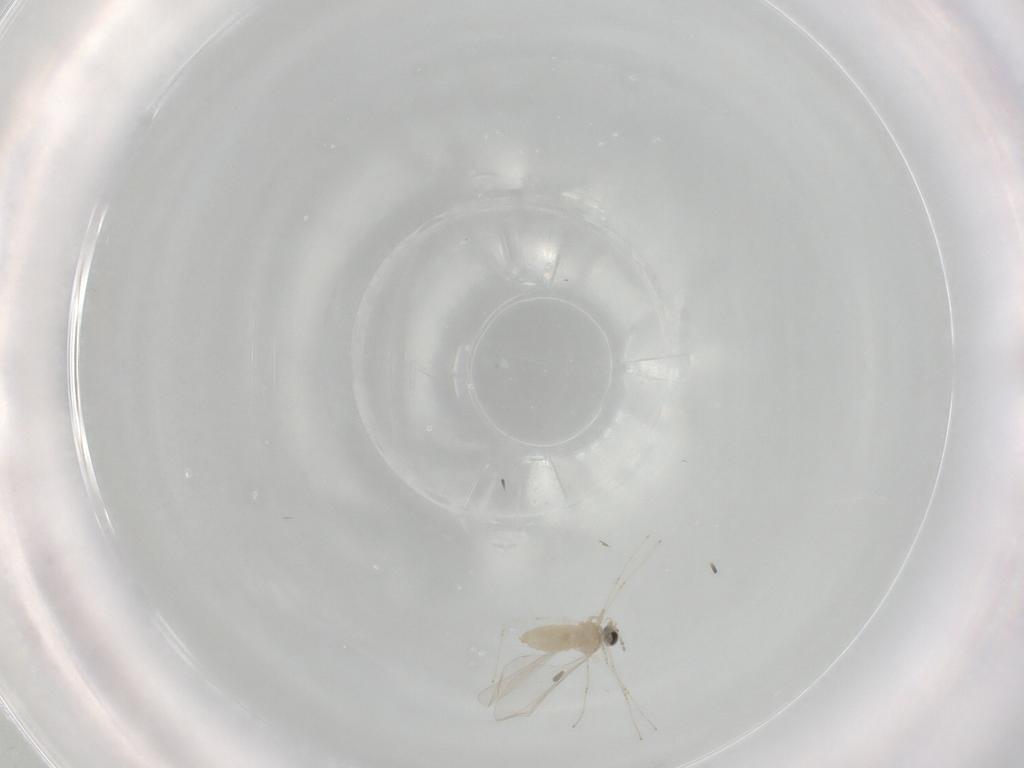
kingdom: Animalia
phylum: Arthropoda
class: Insecta
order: Diptera
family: Cecidomyiidae
